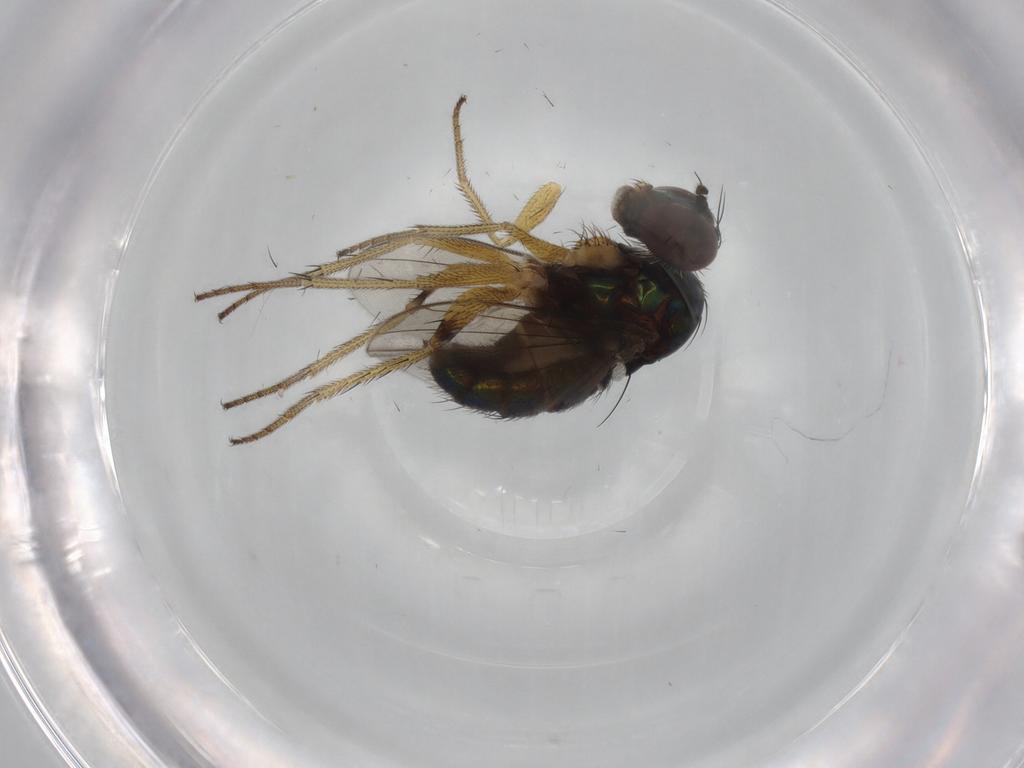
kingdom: Animalia
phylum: Arthropoda
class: Insecta
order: Diptera
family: Dolichopodidae
